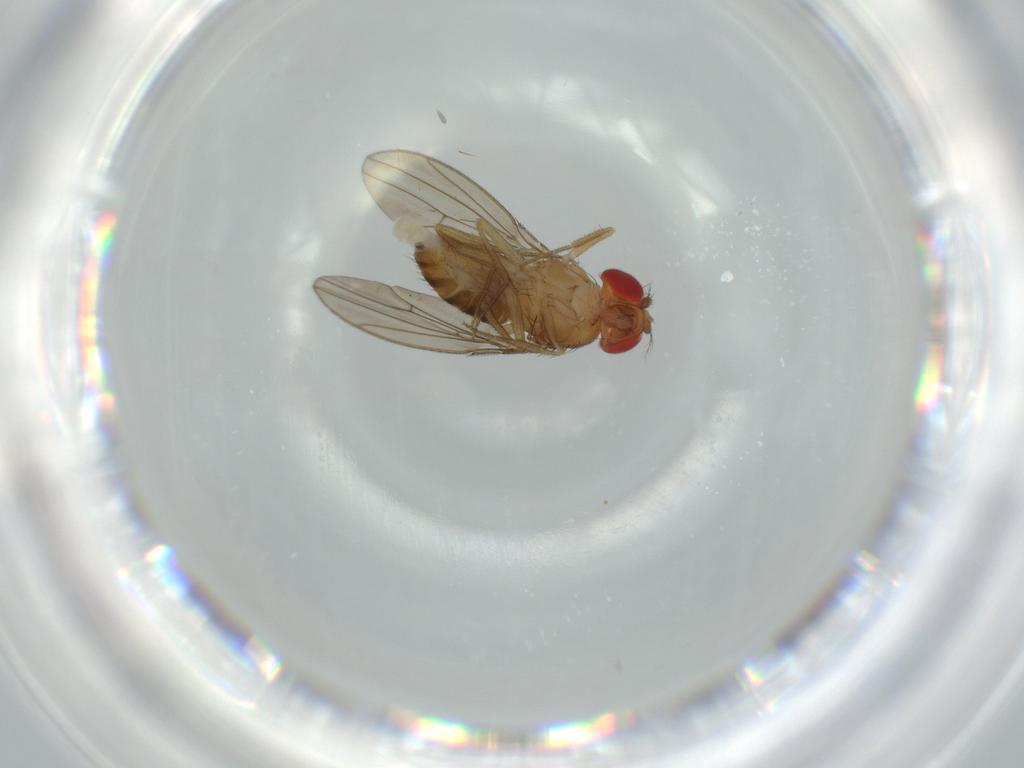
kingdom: Animalia
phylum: Arthropoda
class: Insecta
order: Diptera
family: Drosophilidae
